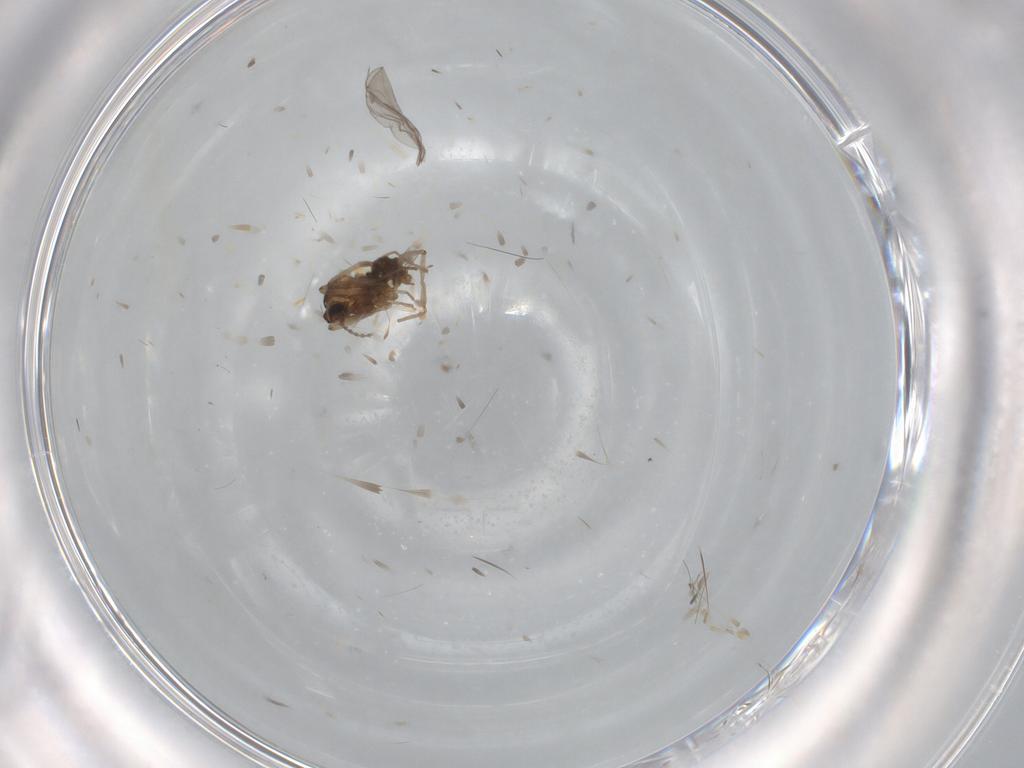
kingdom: Animalia
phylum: Arthropoda
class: Insecta
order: Diptera
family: Cecidomyiidae
